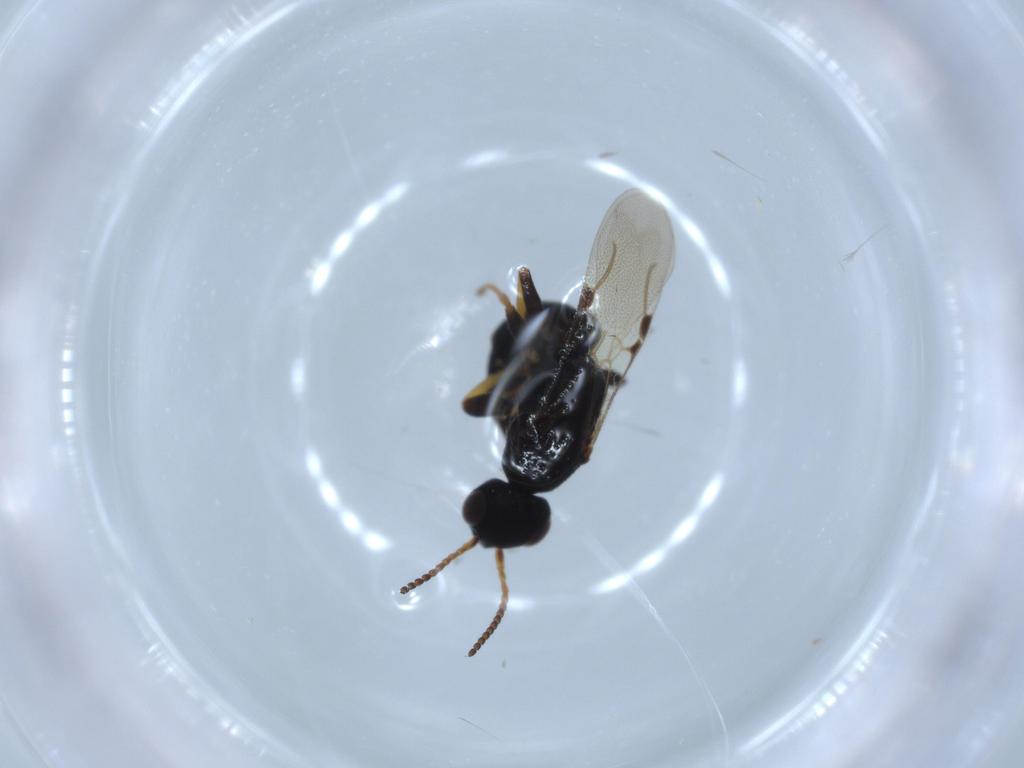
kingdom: Animalia
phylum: Arthropoda
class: Insecta
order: Hymenoptera
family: Bethylidae
